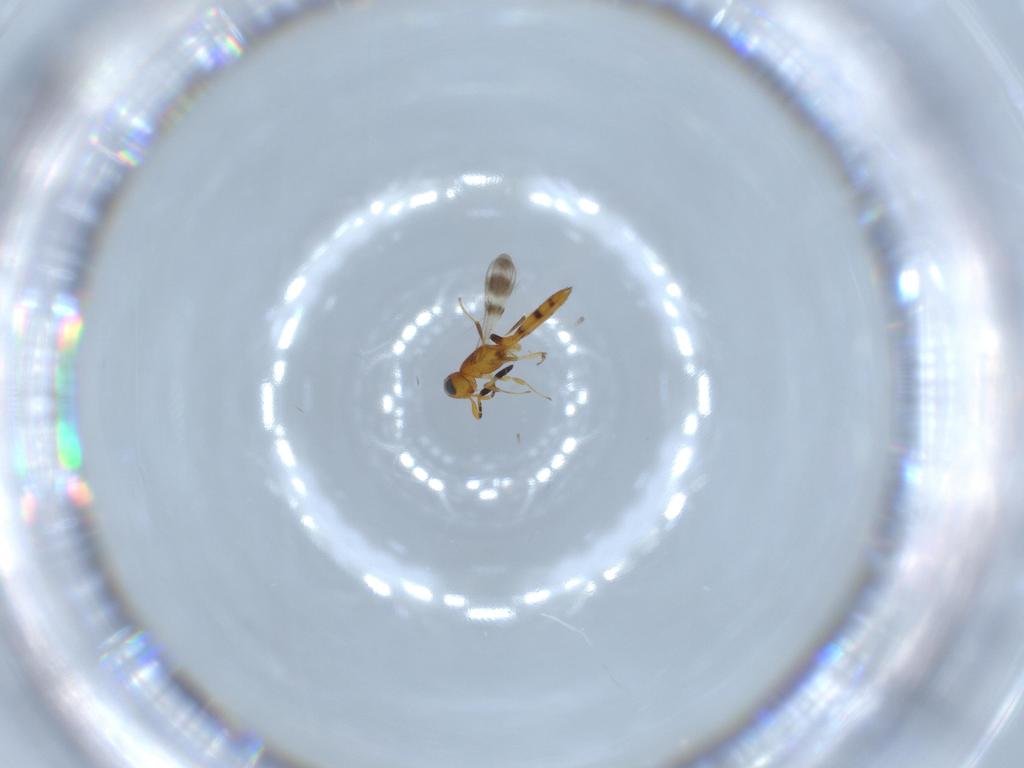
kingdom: Animalia
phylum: Arthropoda
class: Insecta
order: Hymenoptera
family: Scelionidae
